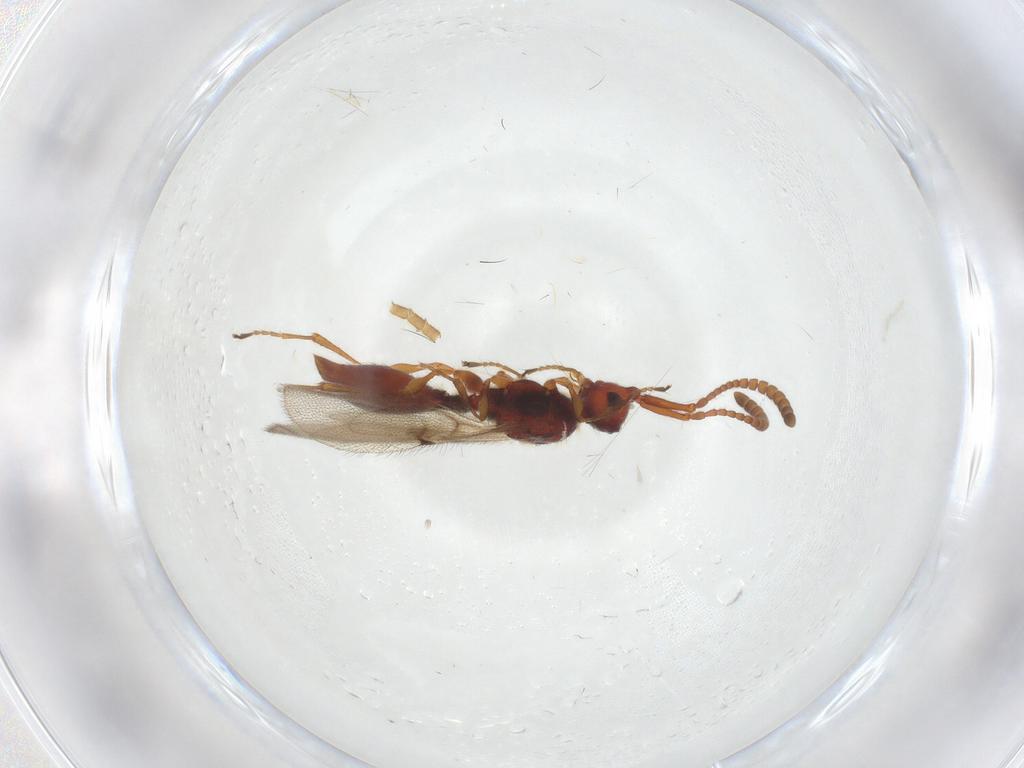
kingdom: Animalia
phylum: Arthropoda
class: Insecta
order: Hymenoptera
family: Diapriidae
